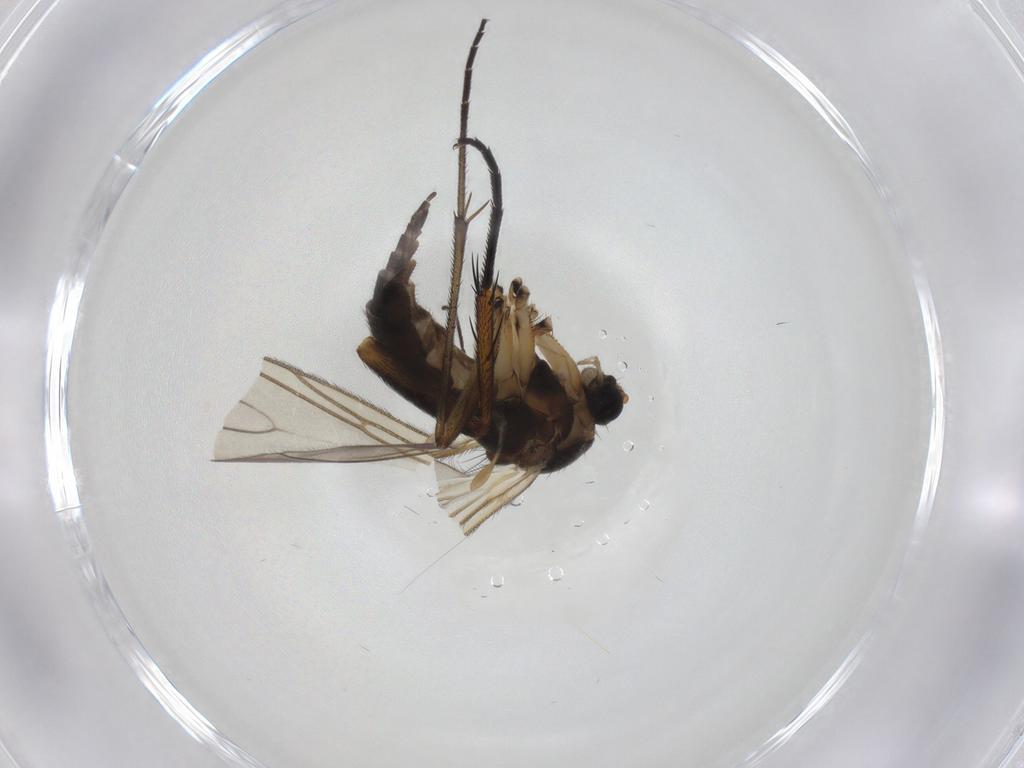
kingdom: Animalia
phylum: Arthropoda
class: Insecta
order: Diptera
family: Sciaridae
